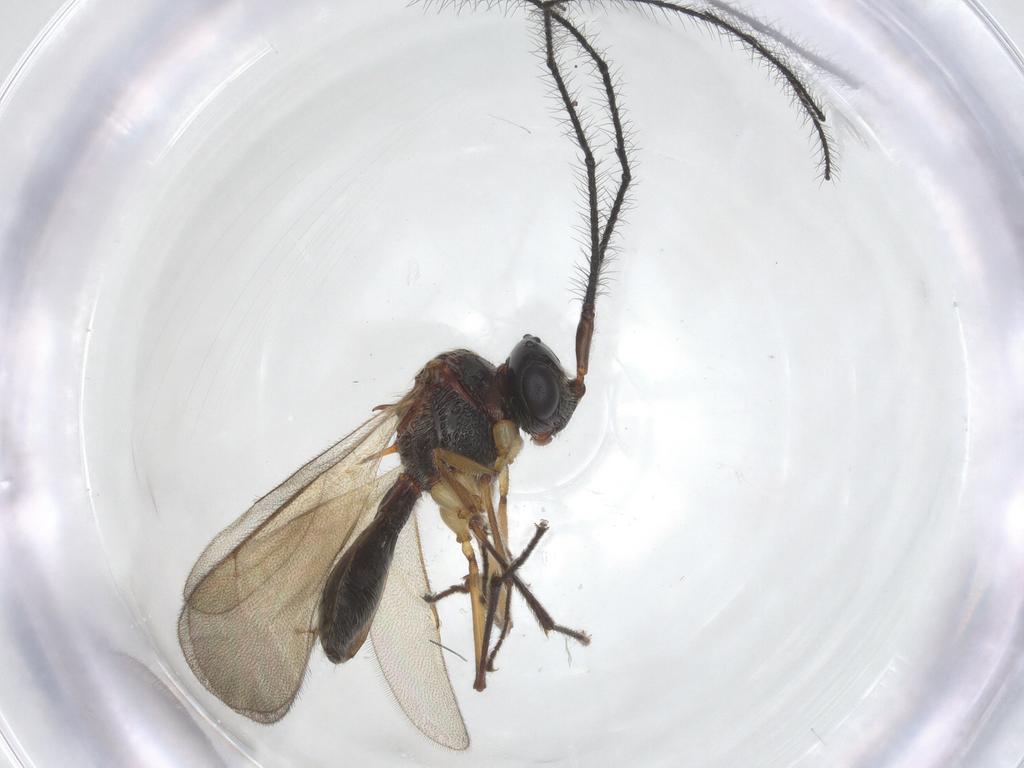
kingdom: Animalia
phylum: Arthropoda
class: Insecta
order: Hymenoptera
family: Scelionidae
